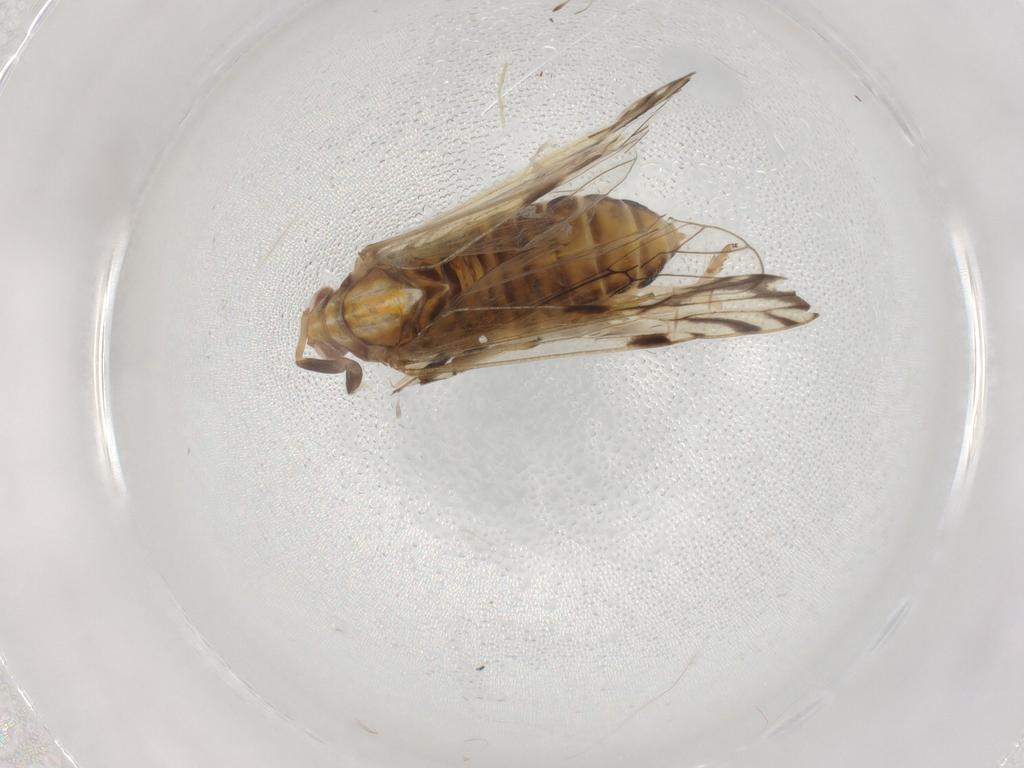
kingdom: Animalia
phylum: Arthropoda
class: Insecta
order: Hemiptera
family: Delphacidae
